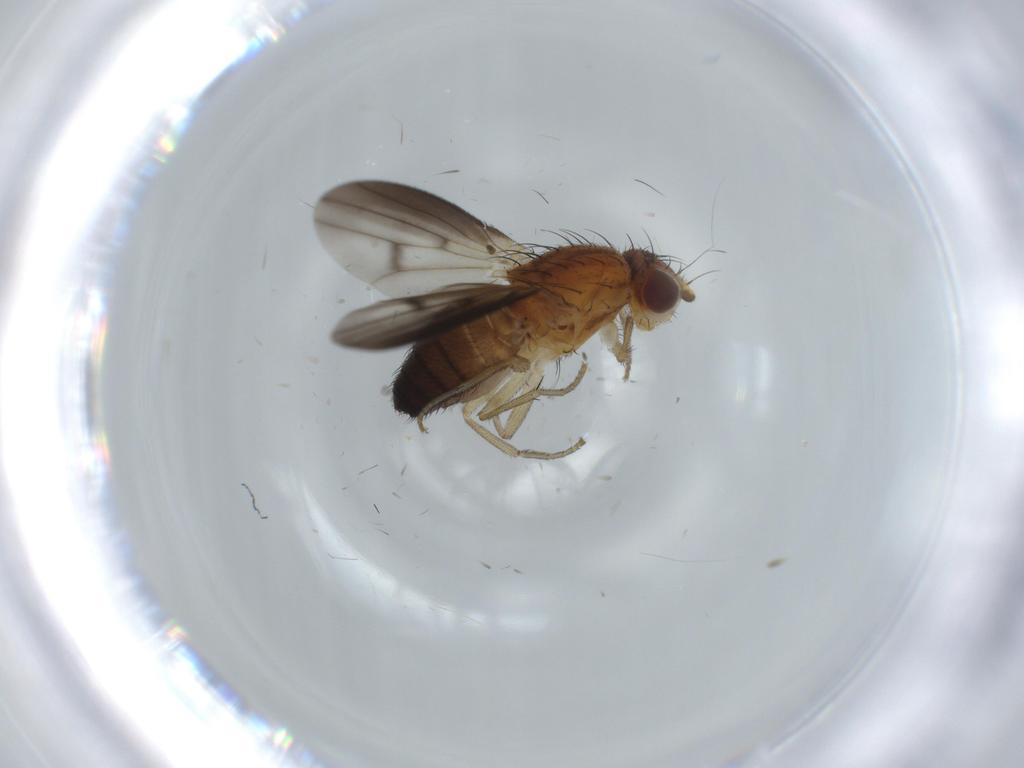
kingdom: Animalia
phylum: Arthropoda
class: Insecta
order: Diptera
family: Heleomyzidae
